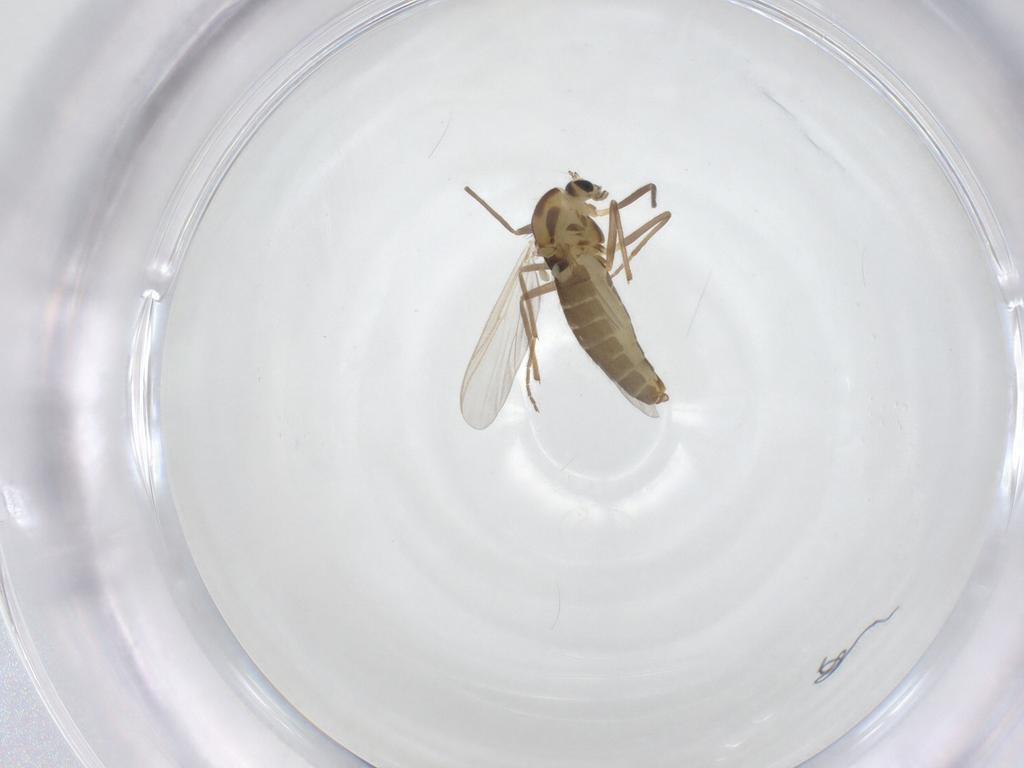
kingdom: Animalia
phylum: Arthropoda
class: Insecta
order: Diptera
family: Chironomidae
